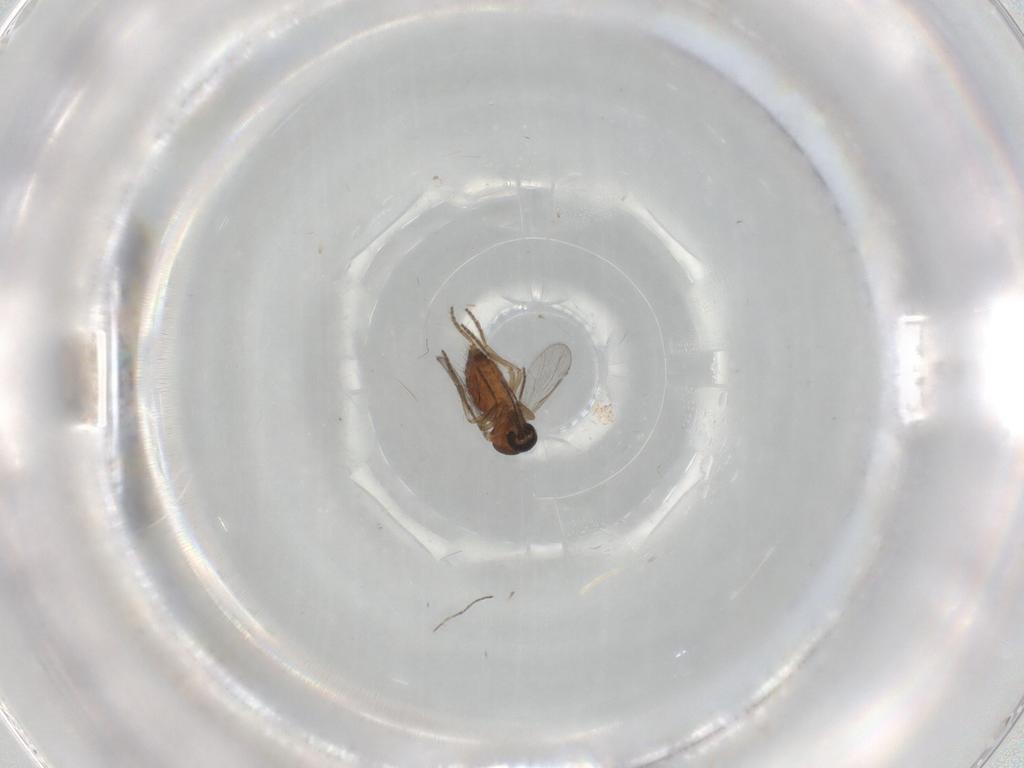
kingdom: Animalia
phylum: Arthropoda
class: Insecta
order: Diptera
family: Ceratopogonidae
